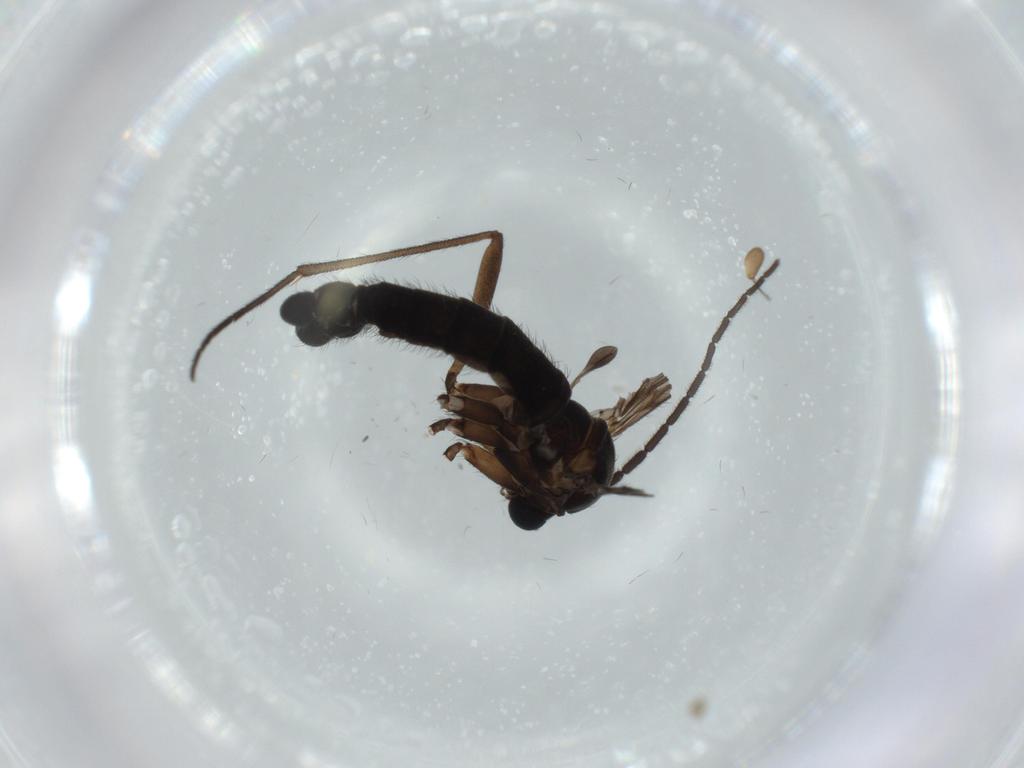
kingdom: Animalia
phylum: Arthropoda
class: Insecta
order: Diptera
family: Sciaridae
